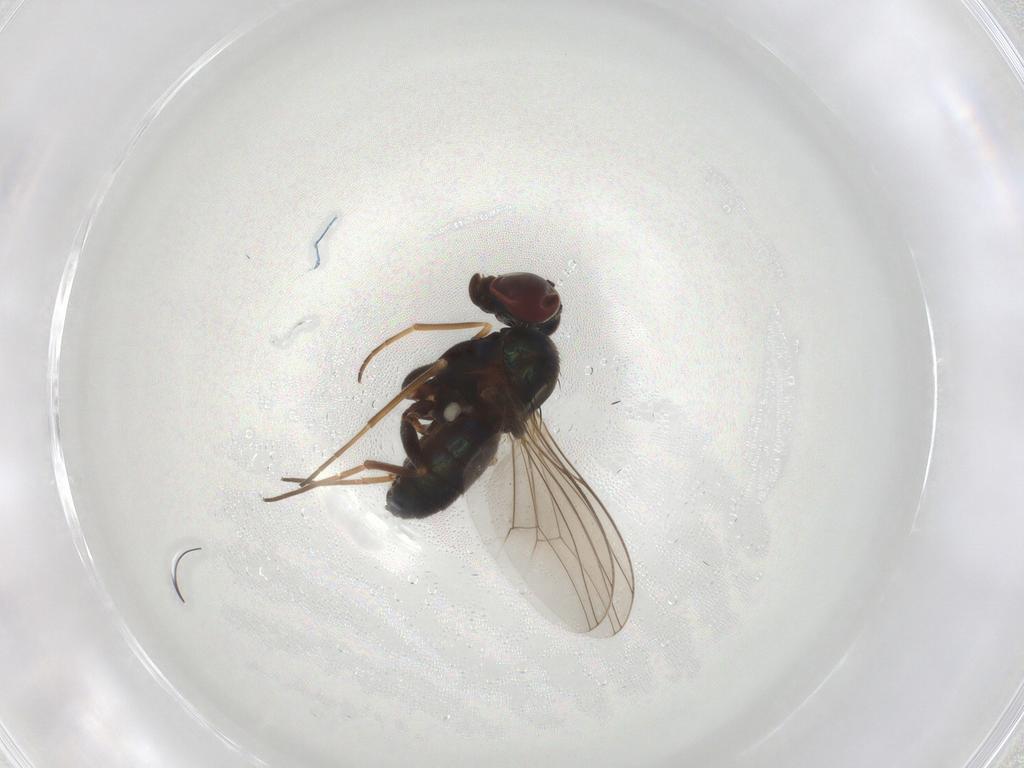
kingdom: Animalia
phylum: Arthropoda
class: Insecta
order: Diptera
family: Dolichopodidae
